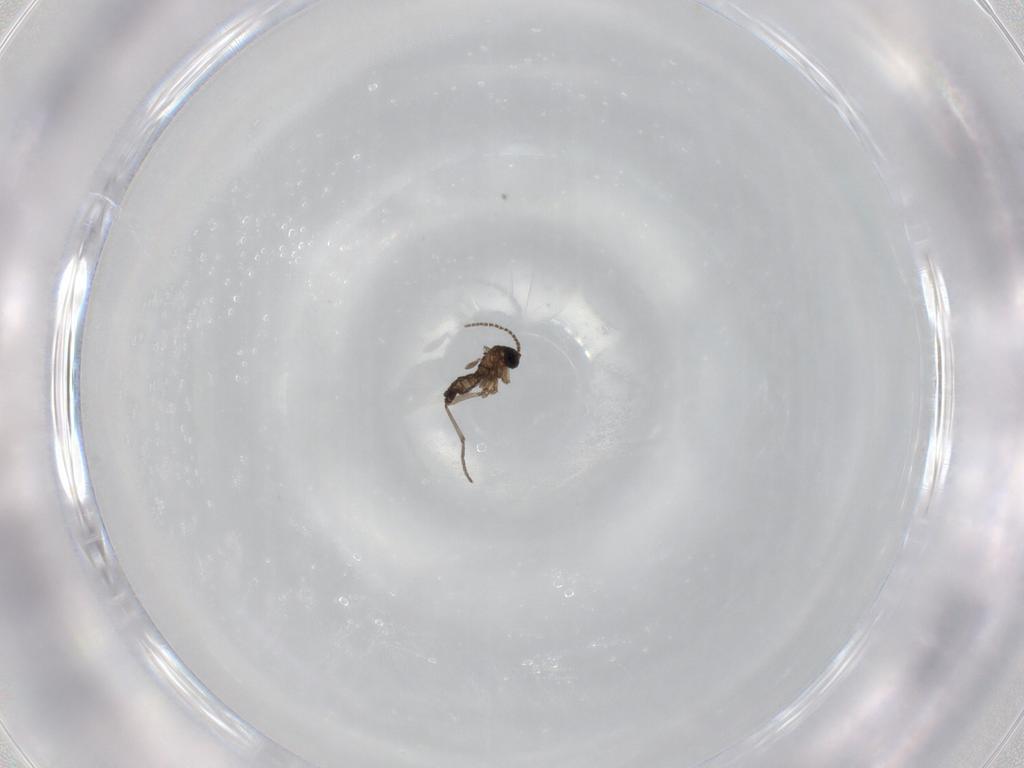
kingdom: Animalia
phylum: Arthropoda
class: Insecta
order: Diptera
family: Chironomidae
